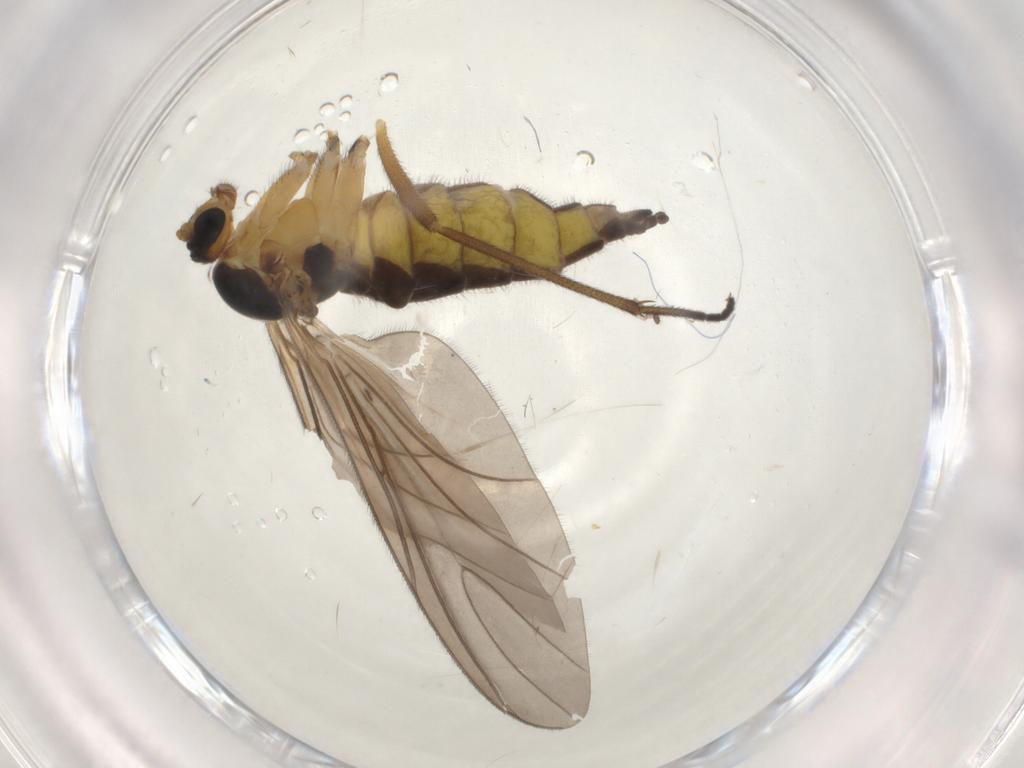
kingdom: Animalia
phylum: Arthropoda
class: Insecta
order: Diptera
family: Sciaridae
